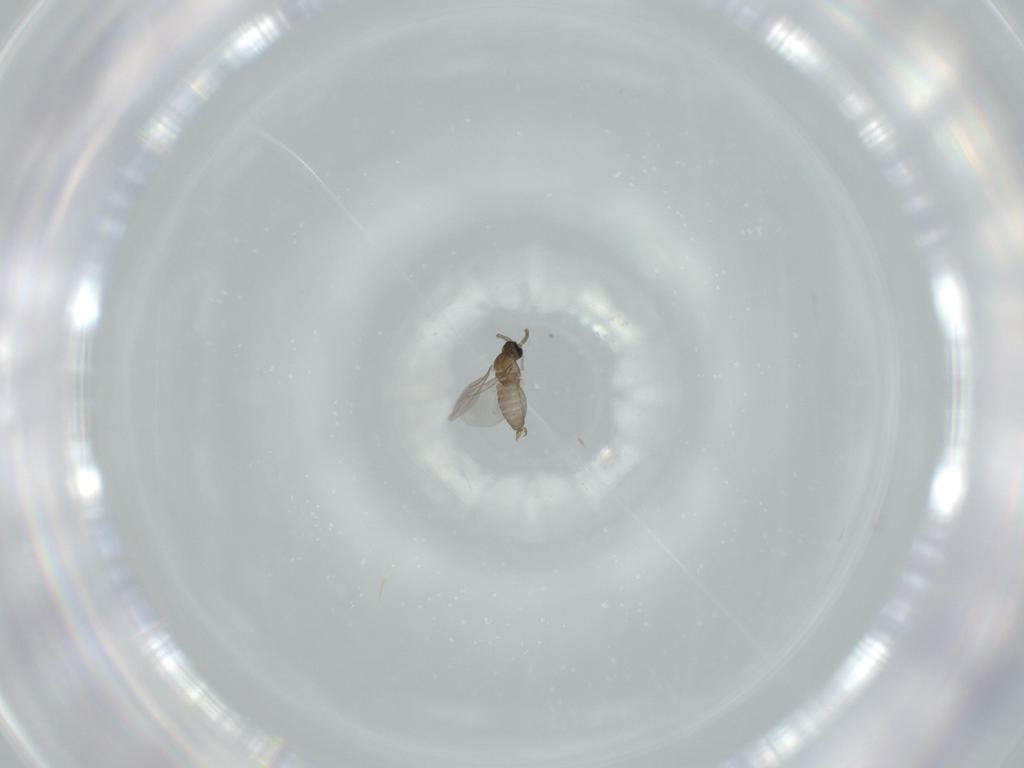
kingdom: Animalia
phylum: Arthropoda
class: Insecta
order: Diptera
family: Cecidomyiidae
